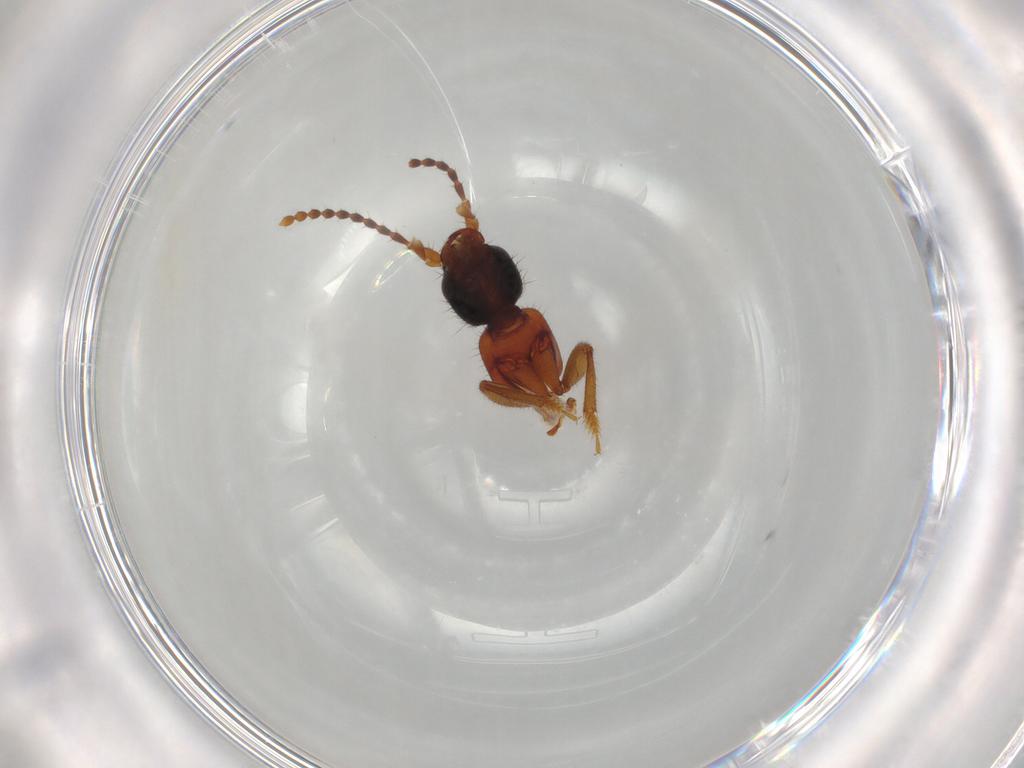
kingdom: Animalia
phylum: Arthropoda
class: Insecta
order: Coleoptera
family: Staphylinidae
